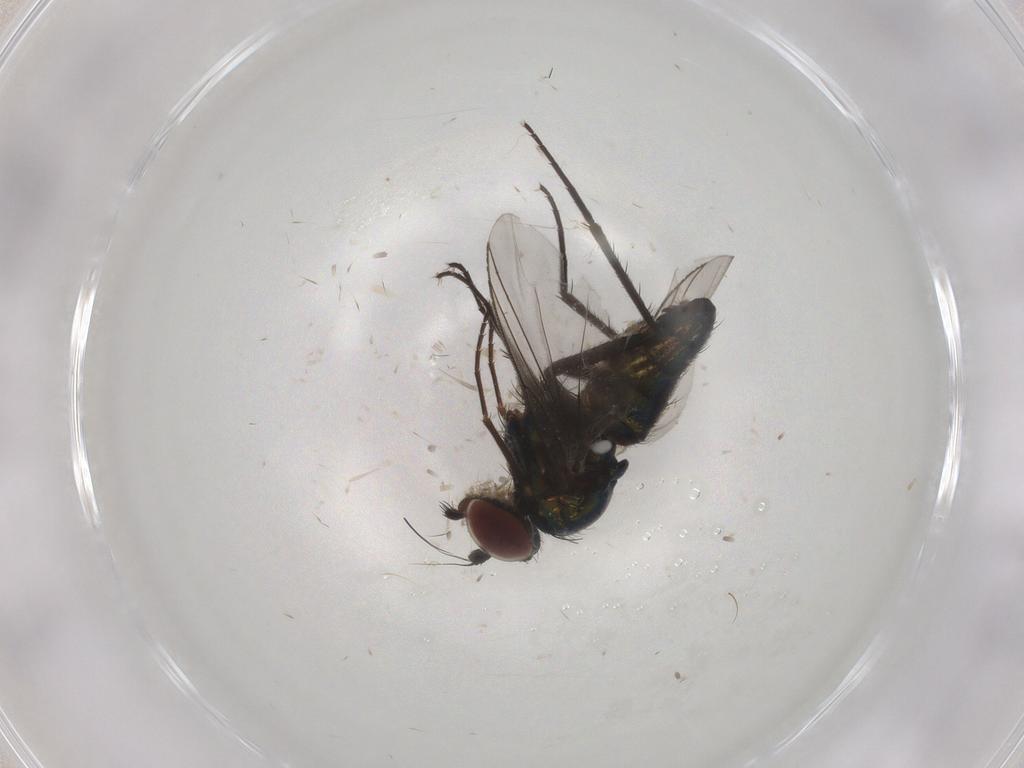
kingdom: Animalia
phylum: Arthropoda
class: Insecta
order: Diptera
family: Dolichopodidae
